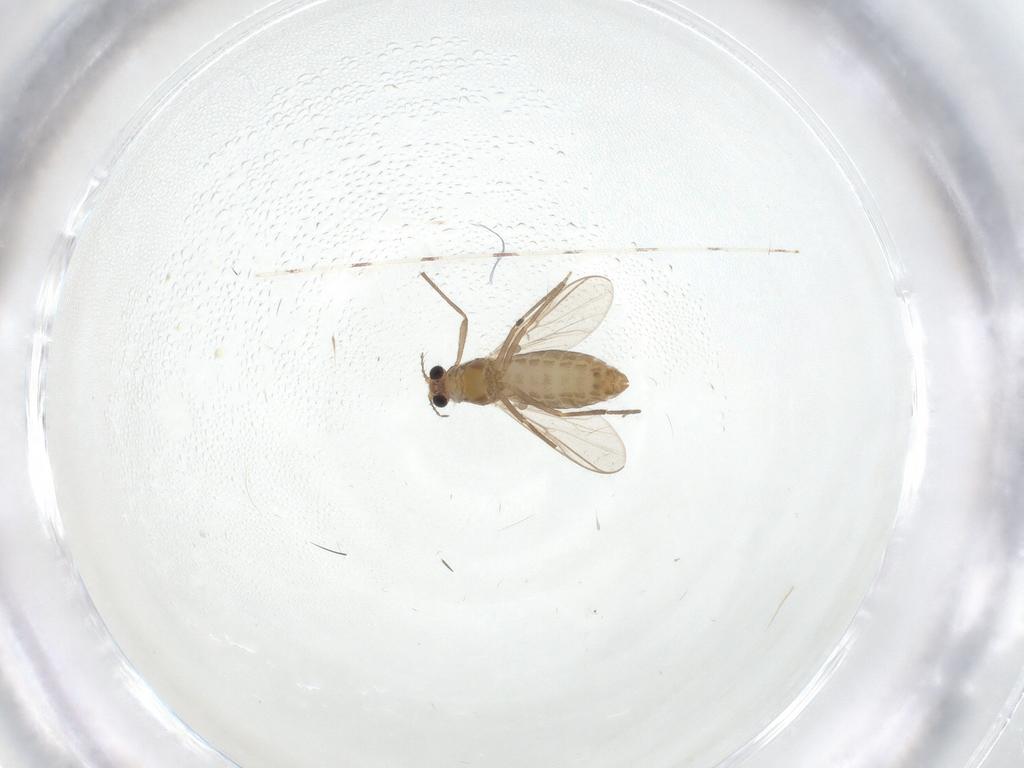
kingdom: Animalia
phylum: Arthropoda
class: Insecta
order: Diptera
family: Chironomidae
